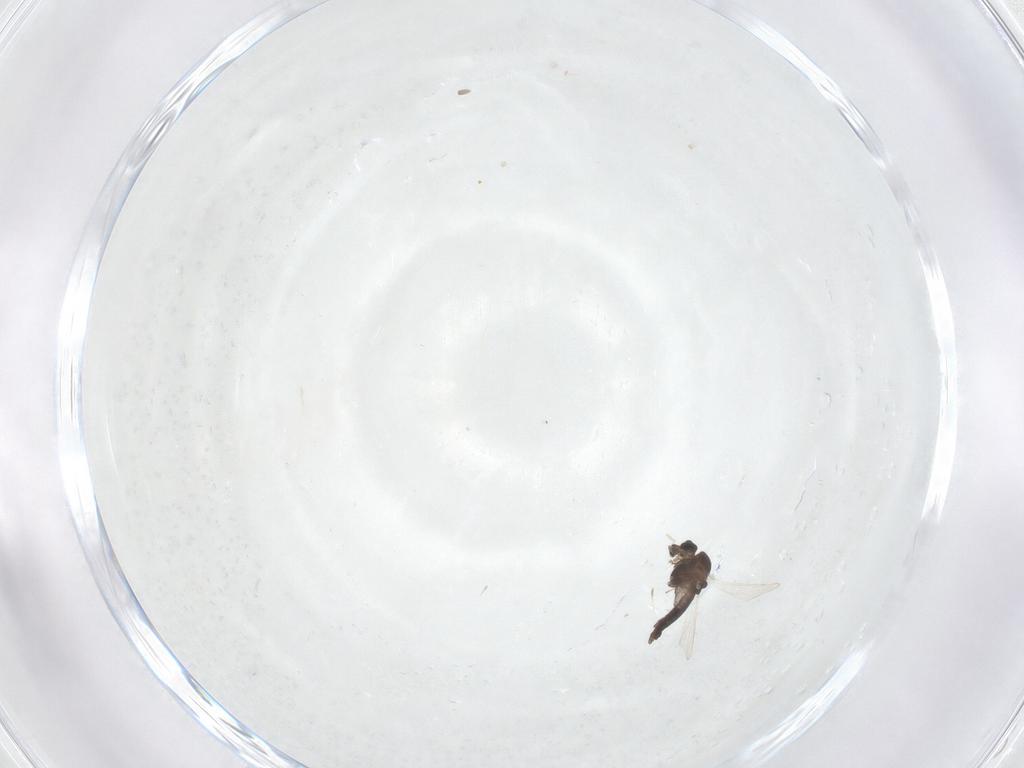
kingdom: Animalia
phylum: Arthropoda
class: Insecta
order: Diptera
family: Chironomidae
